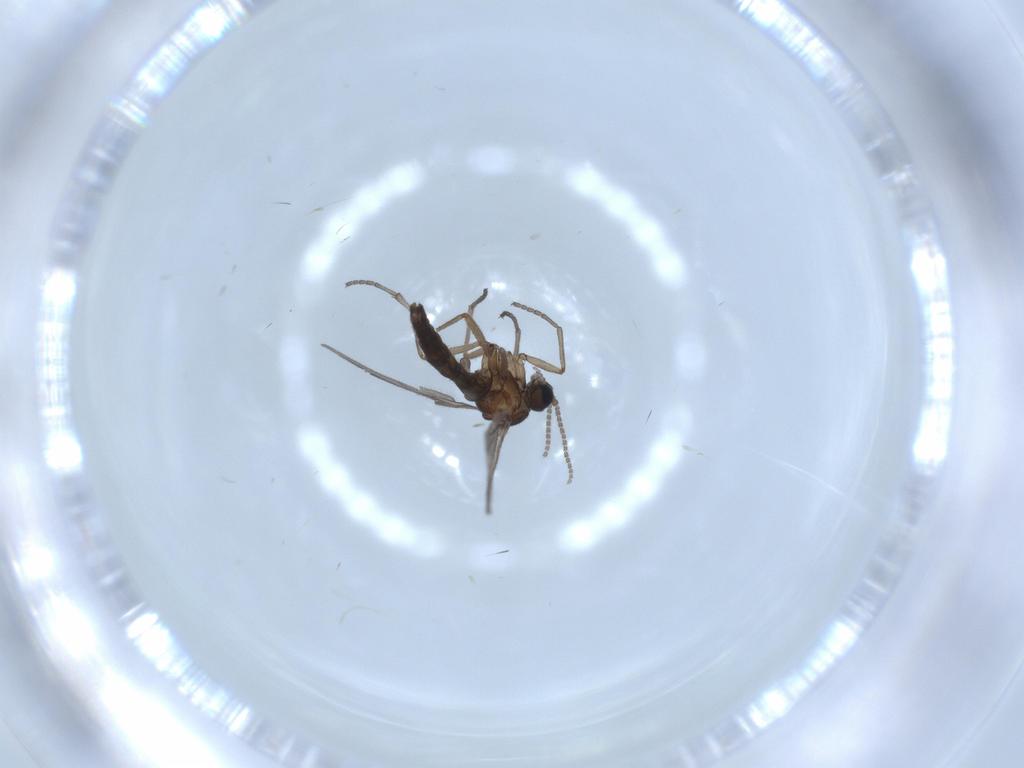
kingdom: Animalia
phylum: Arthropoda
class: Insecta
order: Diptera
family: Sciaridae
